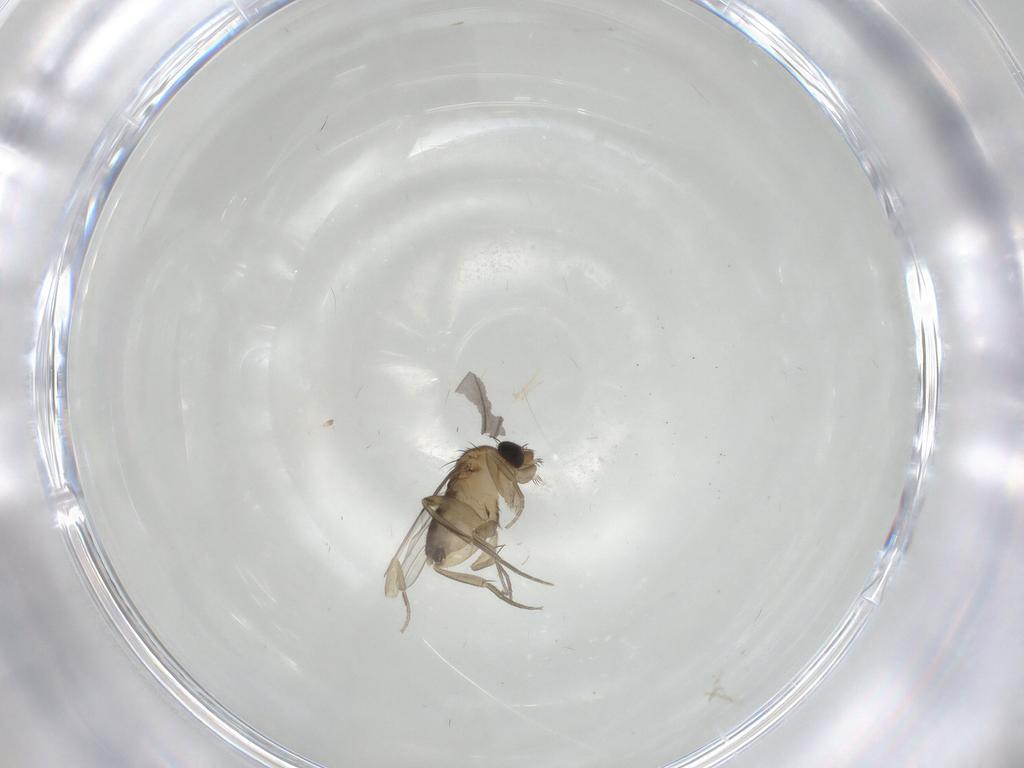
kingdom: Animalia
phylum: Arthropoda
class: Insecta
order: Diptera
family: Phoridae
